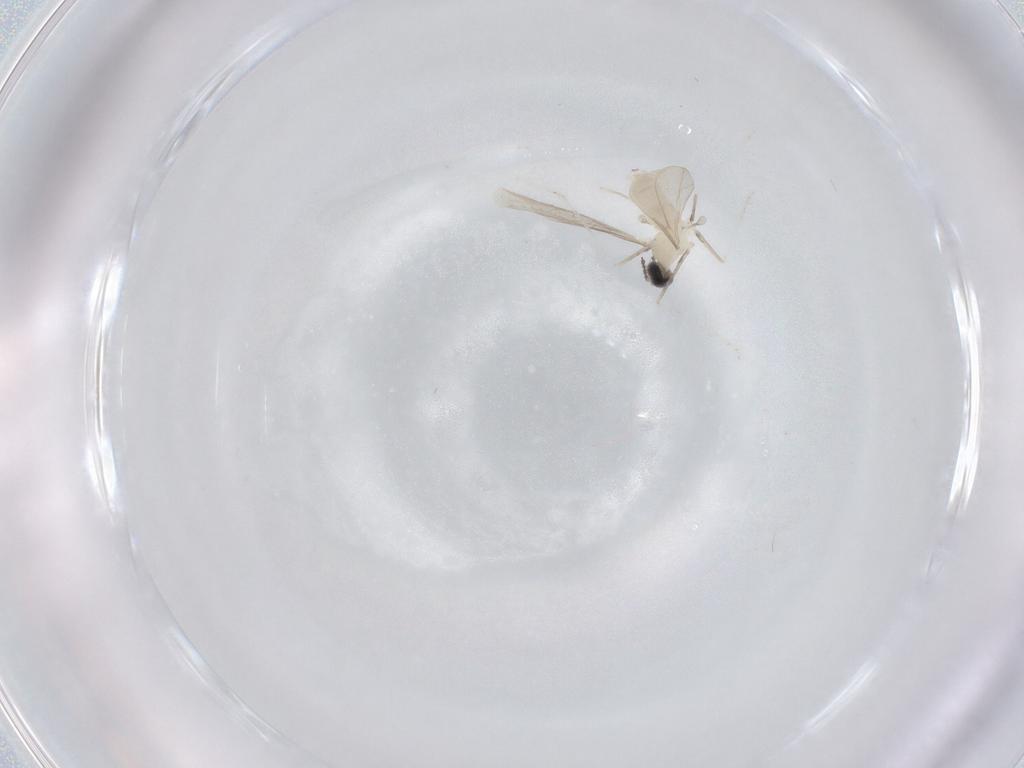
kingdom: Animalia
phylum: Arthropoda
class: Insecta
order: Diptera
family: Cecidomyiidae
